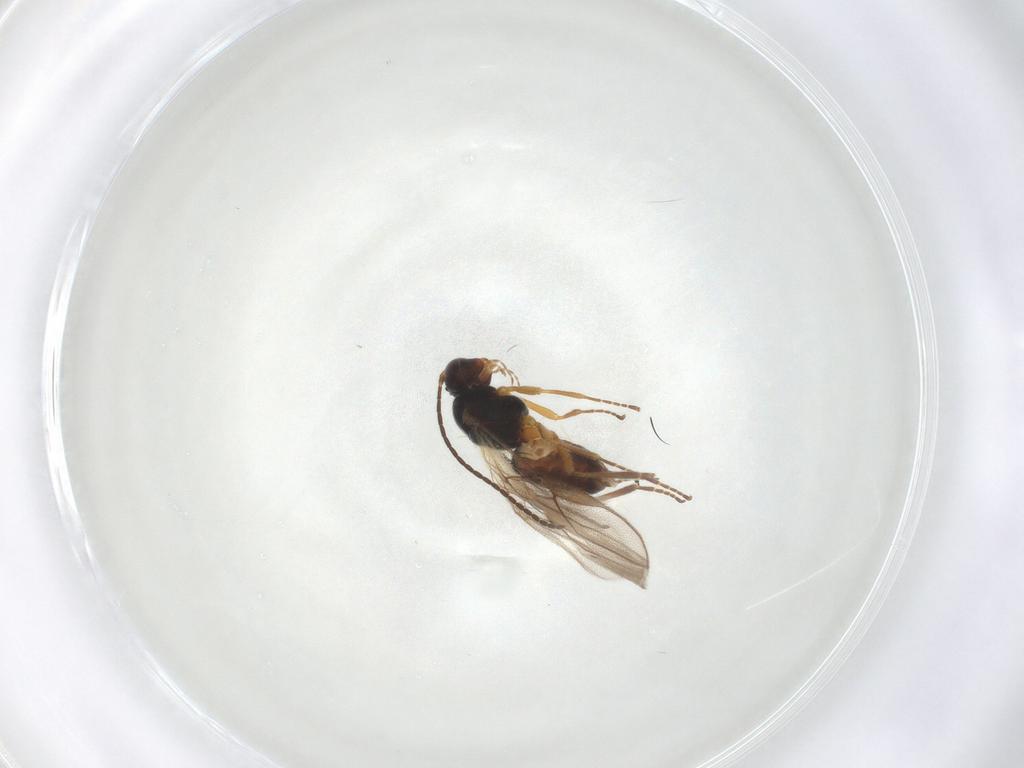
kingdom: Animalia
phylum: Arthropoda
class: Insecta
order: Hymenoptera
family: Braconidae
